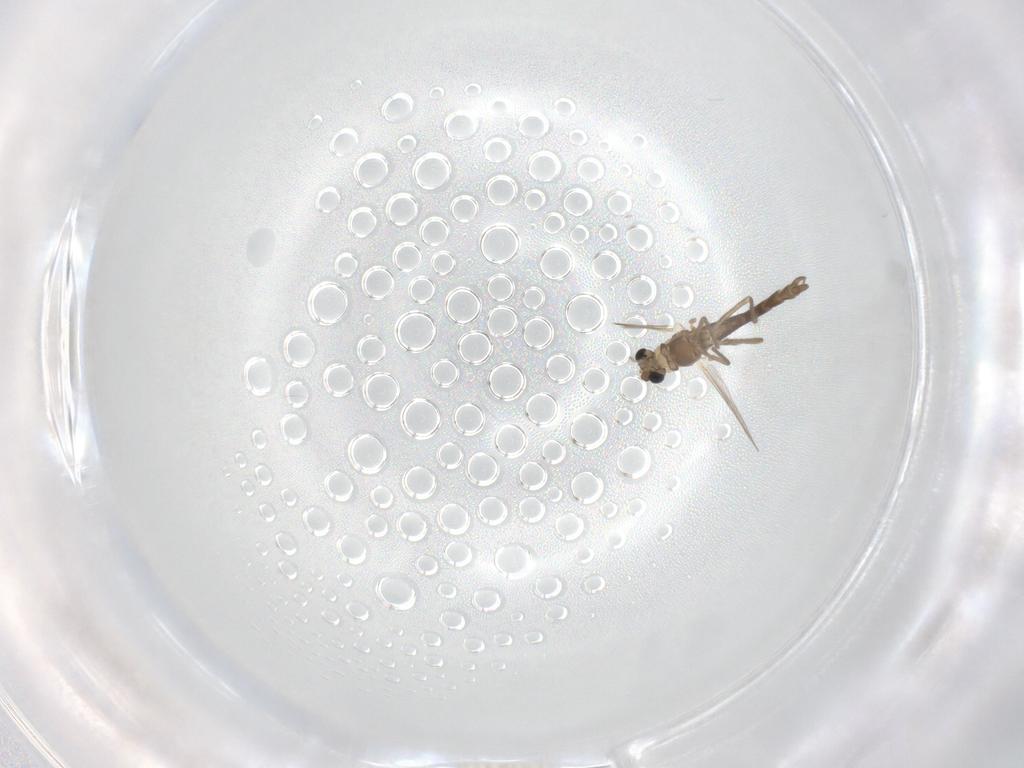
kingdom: Animalia
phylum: Arthropoda
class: Insecta
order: Diptera
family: Chironomidae
